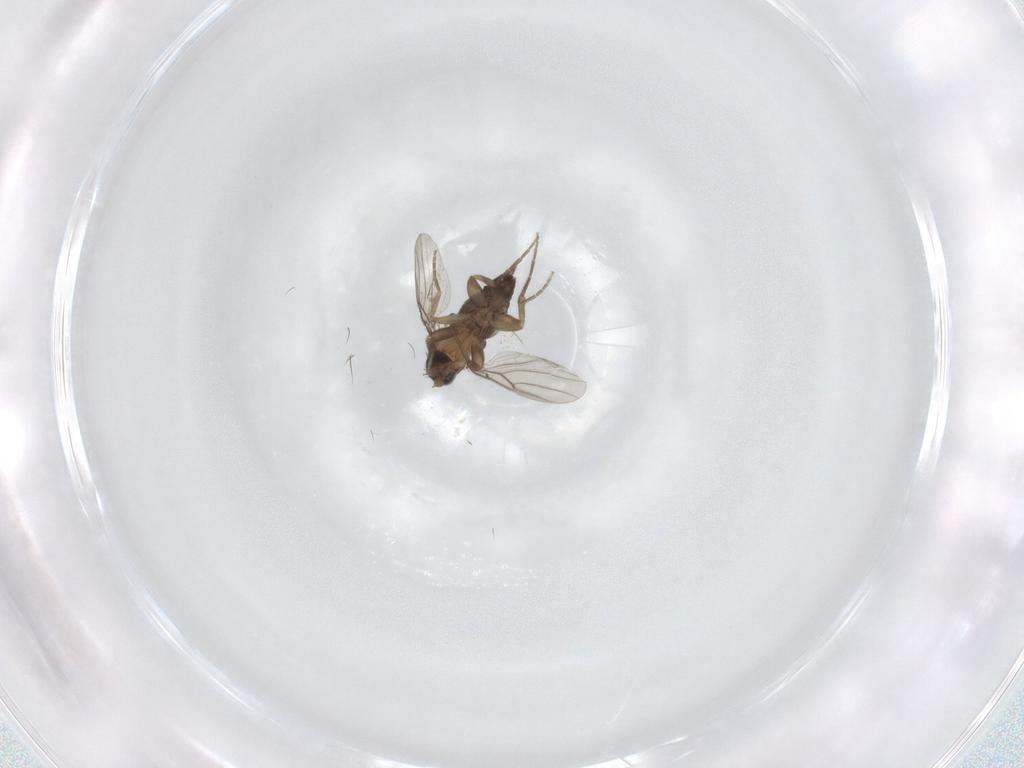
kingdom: Animalia
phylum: Arthropoda
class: Insecta
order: Diptera
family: Phoridae
